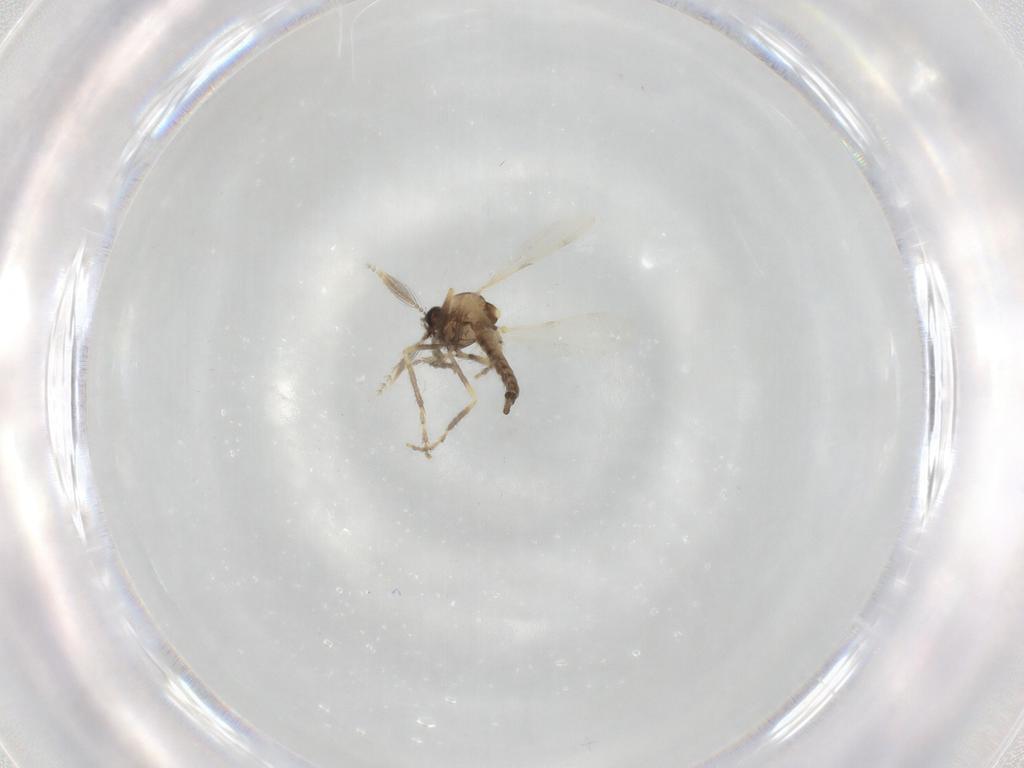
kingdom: Animalia
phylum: Arthropoda
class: Insecta
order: Diptera
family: Ceratopogonidae
